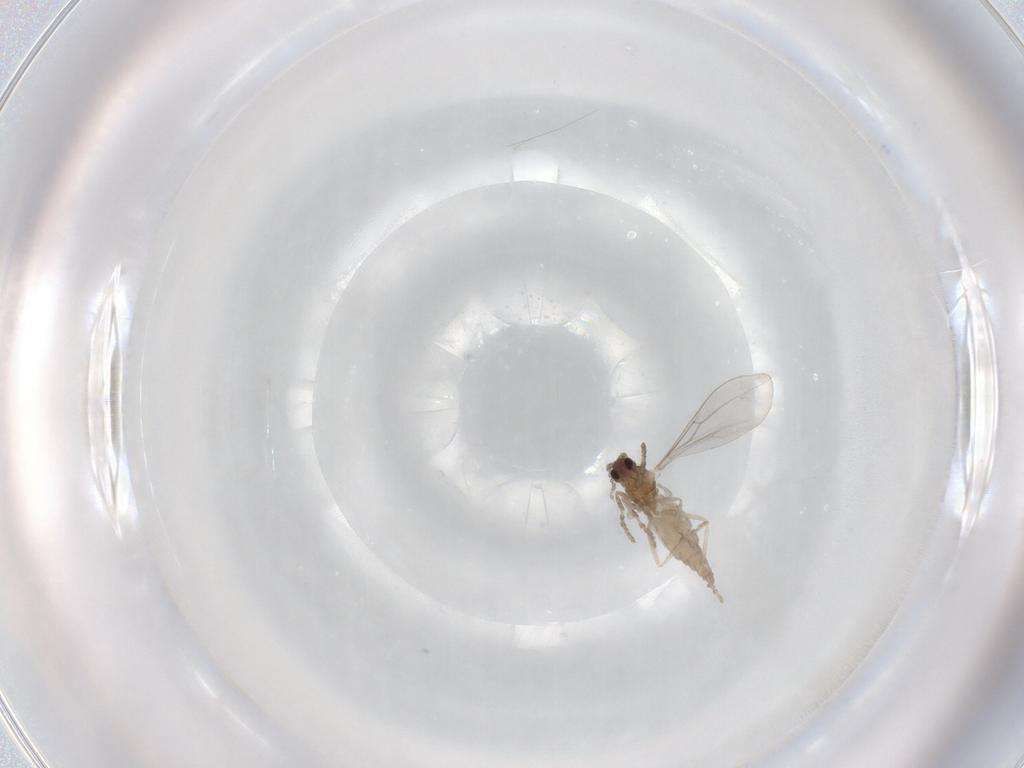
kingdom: Animalia
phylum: Arthropoda
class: Insecta
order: Diptera
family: Cecidomyiidae
